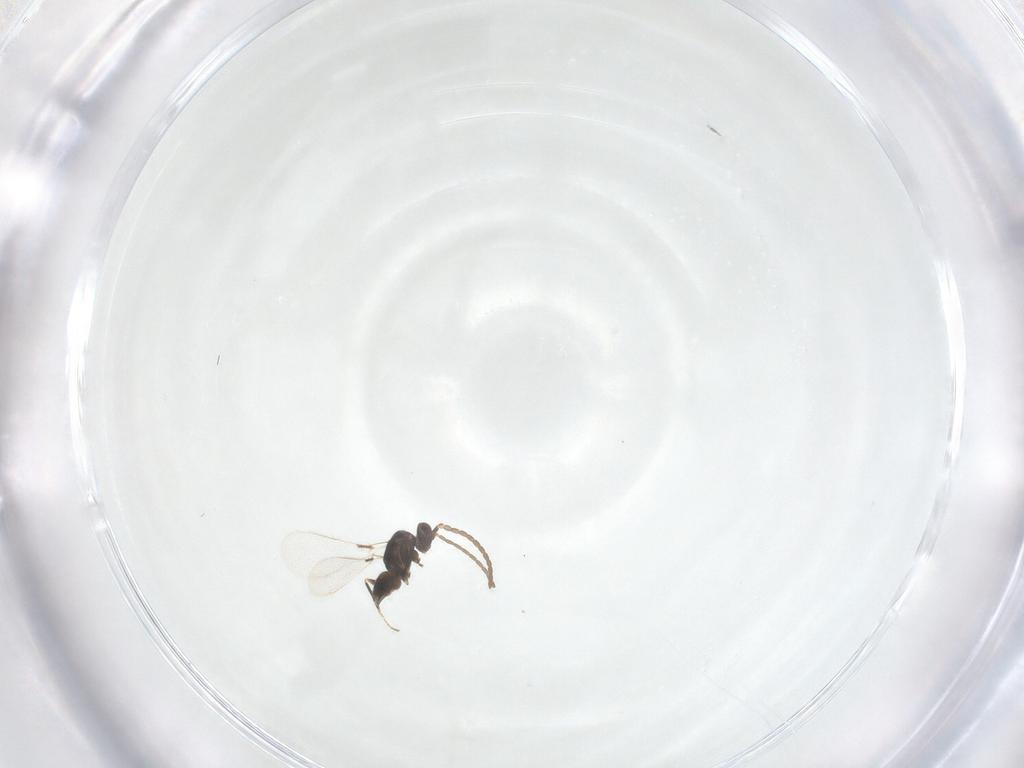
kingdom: Animalia
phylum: Arthropoda
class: Insecta
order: Hymenoptera
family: Mymaridae
